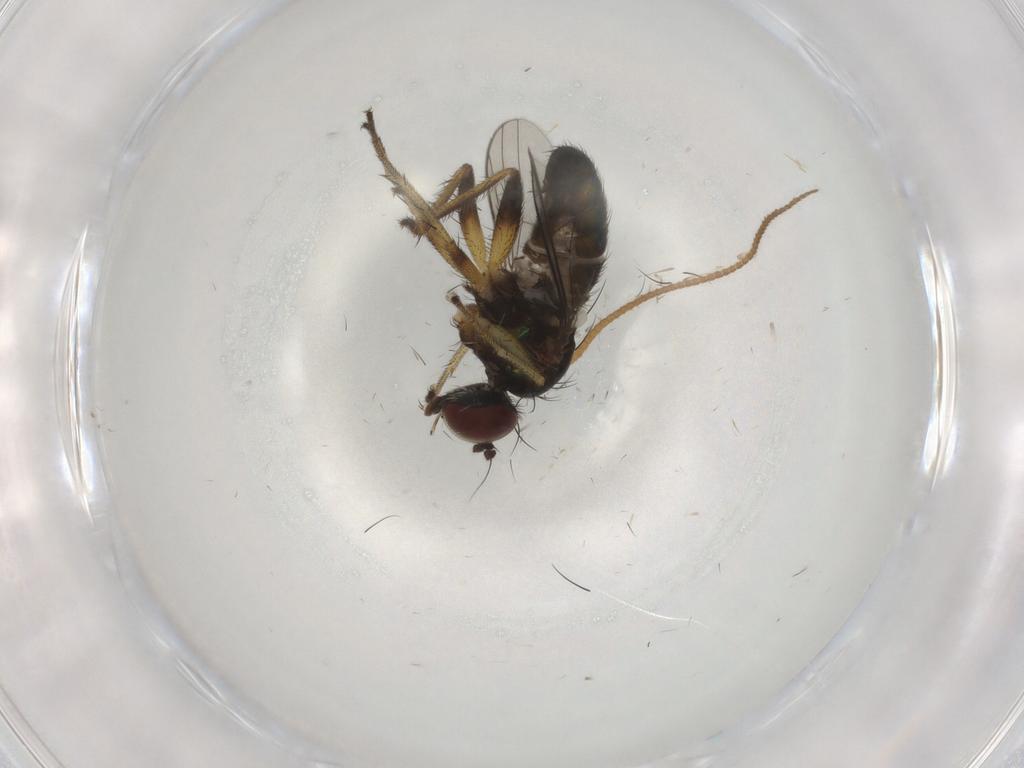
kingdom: Animalia
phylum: Arthropoda
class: Insecta
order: Diptera
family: Dolichopodidae
